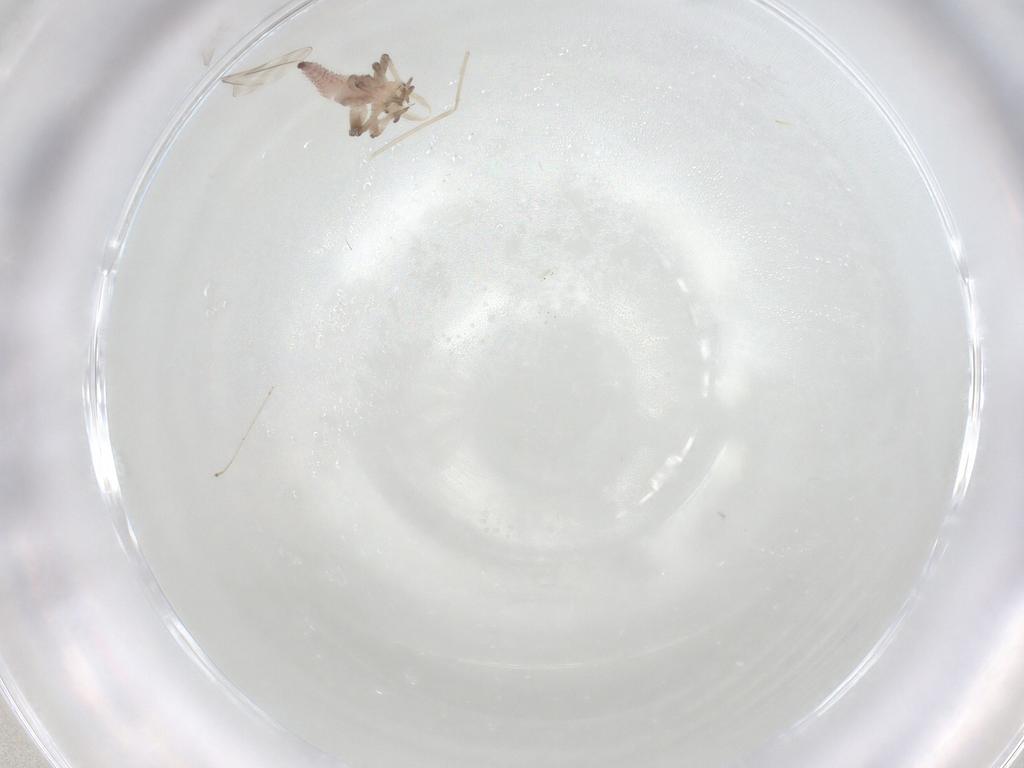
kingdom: Animalia
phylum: Arthropoda
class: Insecta
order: Neuroptera
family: Hemerobiidae
